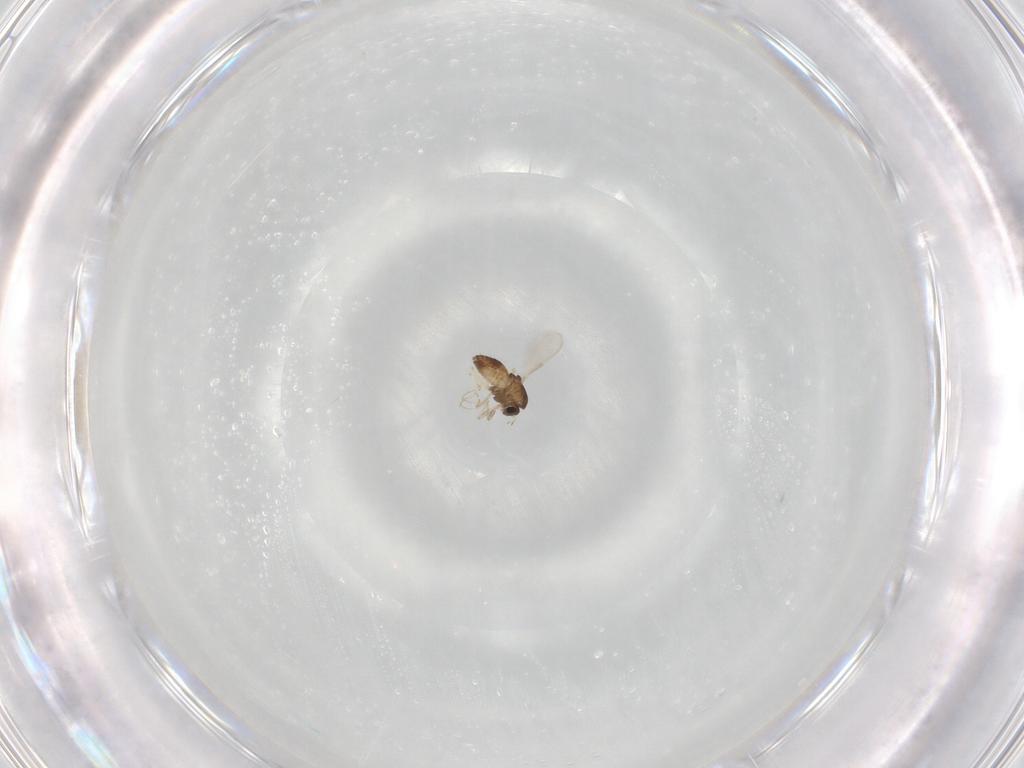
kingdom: Animalia
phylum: Arthropoda
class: Insecta
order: Diptera
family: Chironomidae
